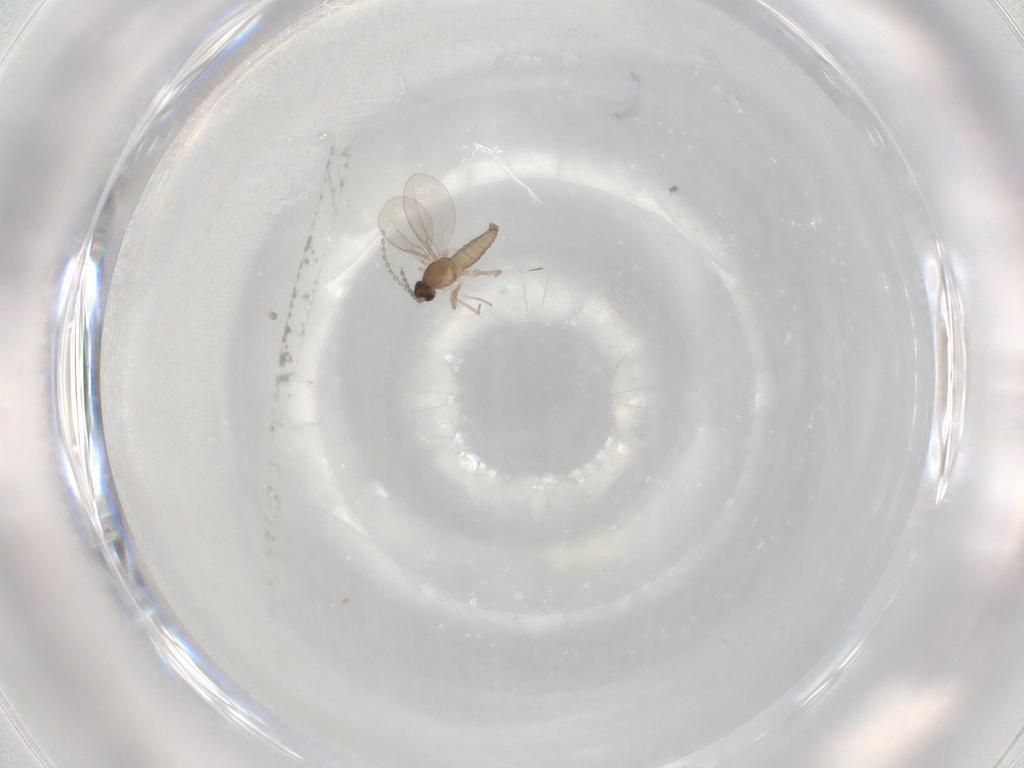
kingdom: Animalia
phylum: Arthropoda
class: Insecta
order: Diptera
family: Cecidomyiidae
